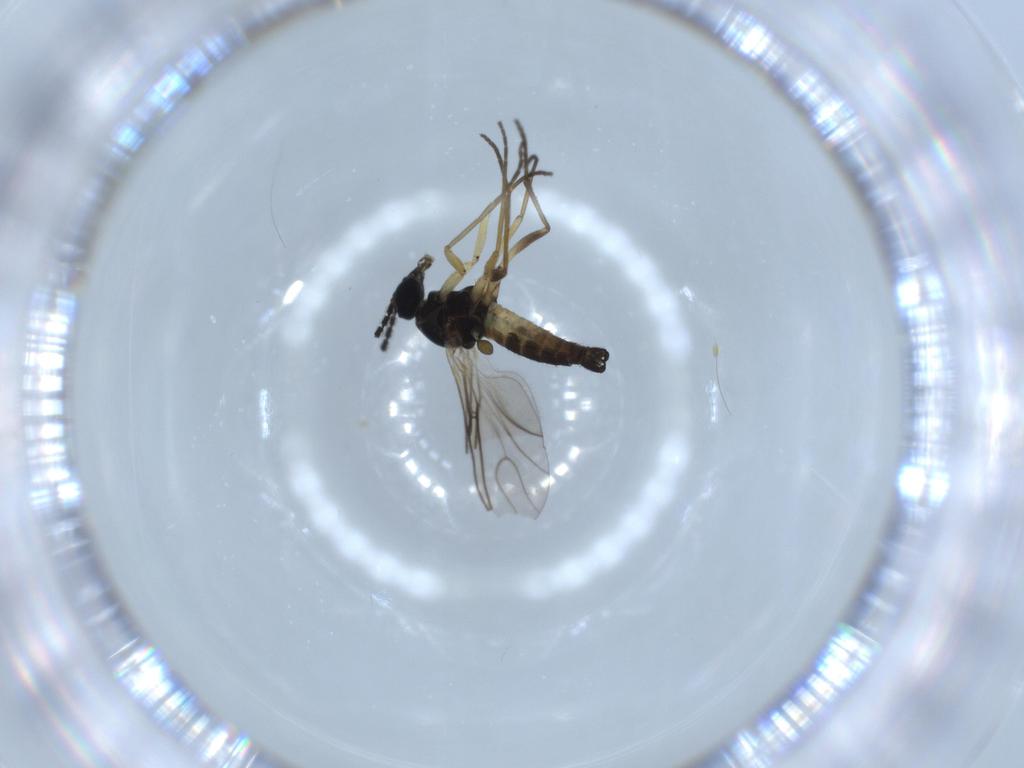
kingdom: Animalia
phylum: Arthropoda
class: Insecta
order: Diptera
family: Sciaridae
